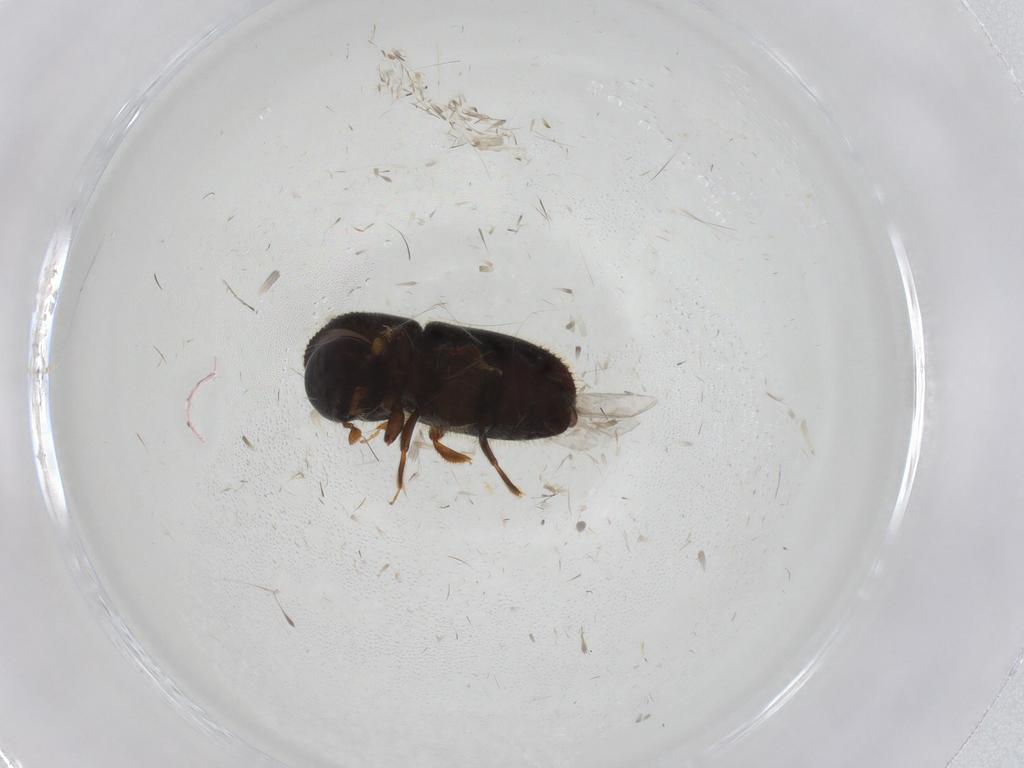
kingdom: Animalia
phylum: Arthropoda
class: Insecta
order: Coleoptera
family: Curculionidae
